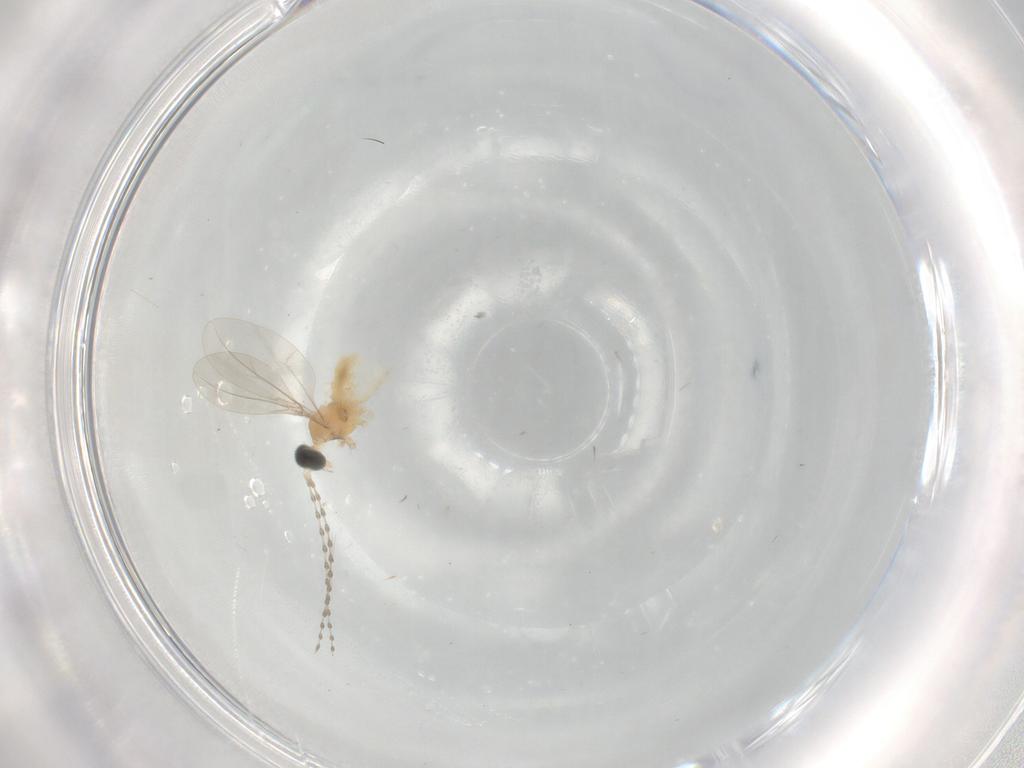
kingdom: Animalia
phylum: Arthropoda
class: Insecta
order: Diptera
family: Cecidomyiidae
